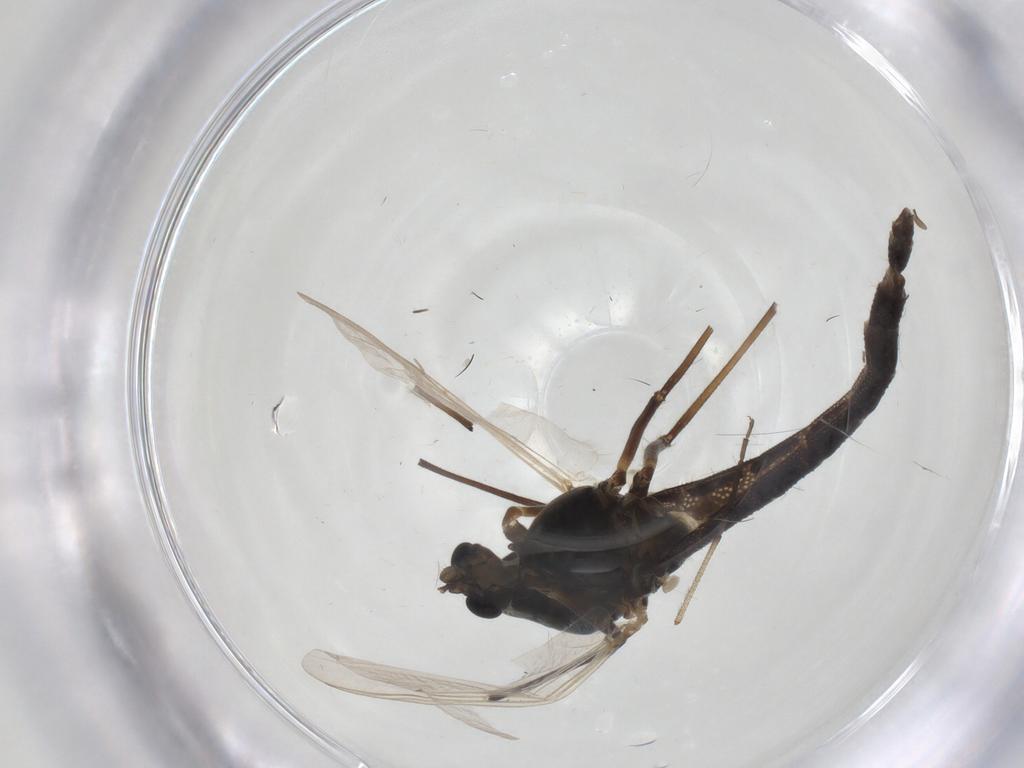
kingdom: Animalia
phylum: Arthropoda
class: Insecta
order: Diptera
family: Chironomidae
